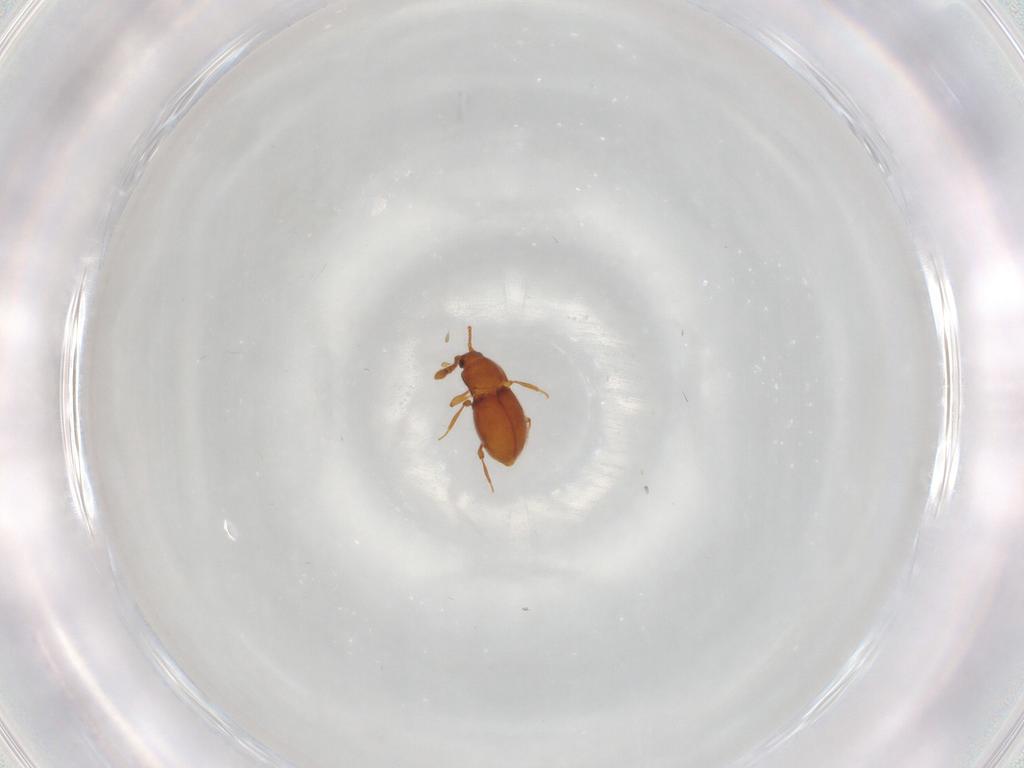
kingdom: Animalia
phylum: Arthropoda
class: Insecta
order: Coleoptera
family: Staphylinidae
